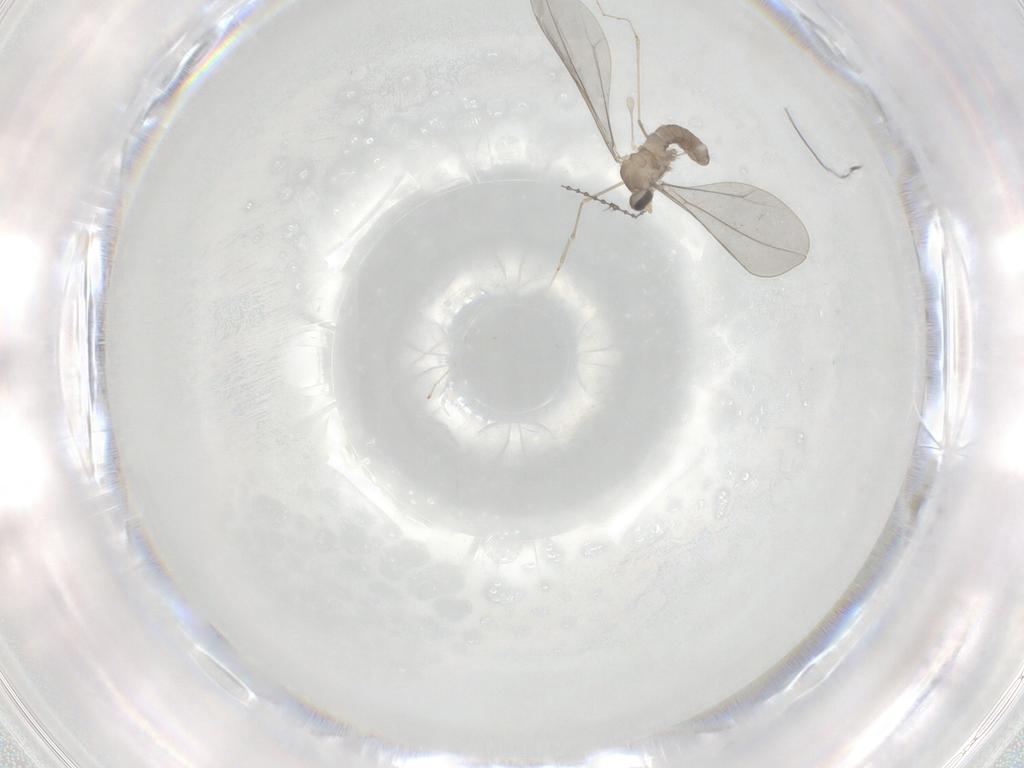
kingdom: Animalia
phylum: Arthropoda
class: Insecta
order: Diptera
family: Cecidomyiidae
